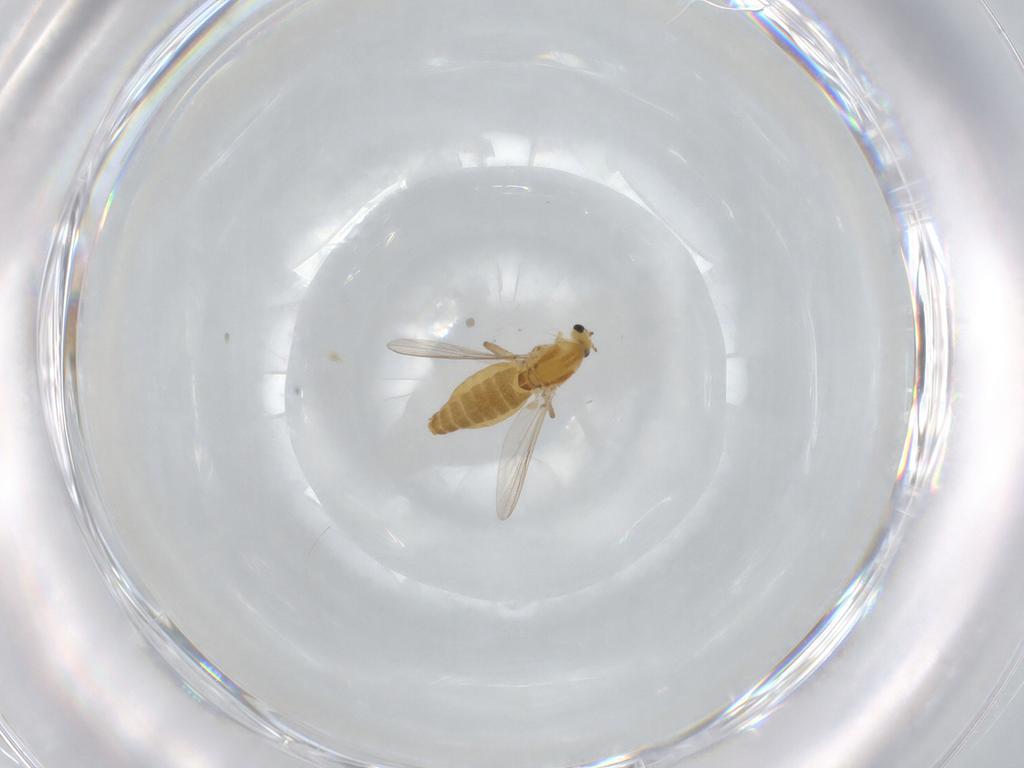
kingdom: Animalia
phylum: Arthropoda
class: Insecta
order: Diptera
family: Chironomidae
